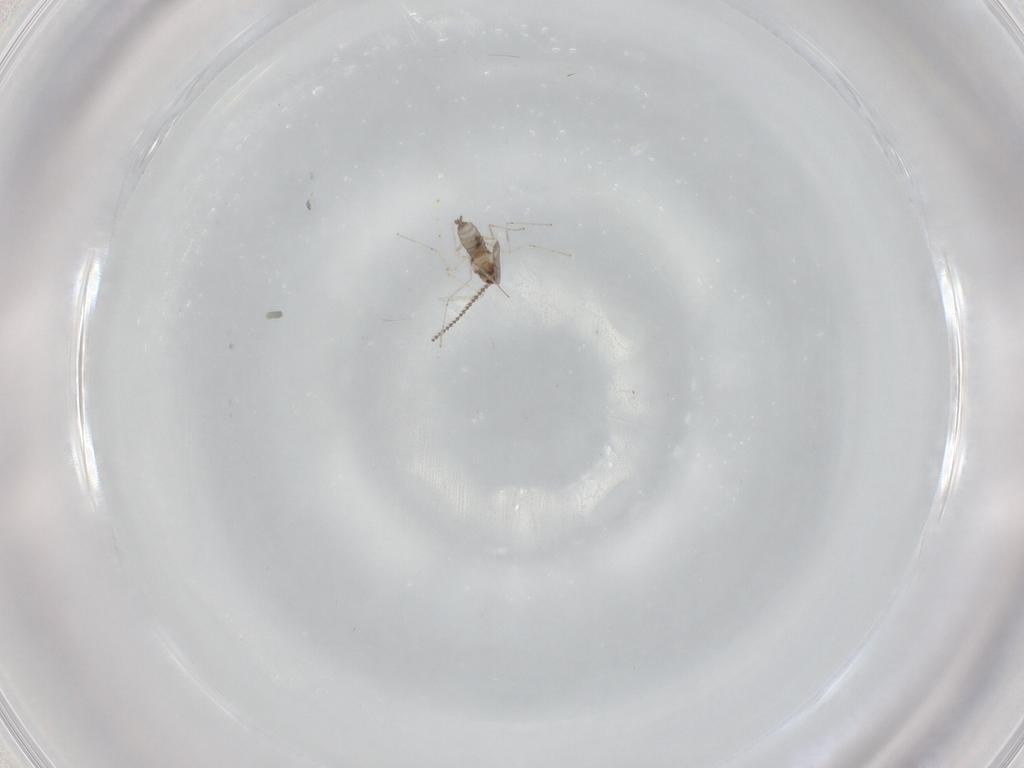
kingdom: Animalia
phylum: Arthropoda
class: Insecta
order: Diptera
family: Cecidomyiidae
